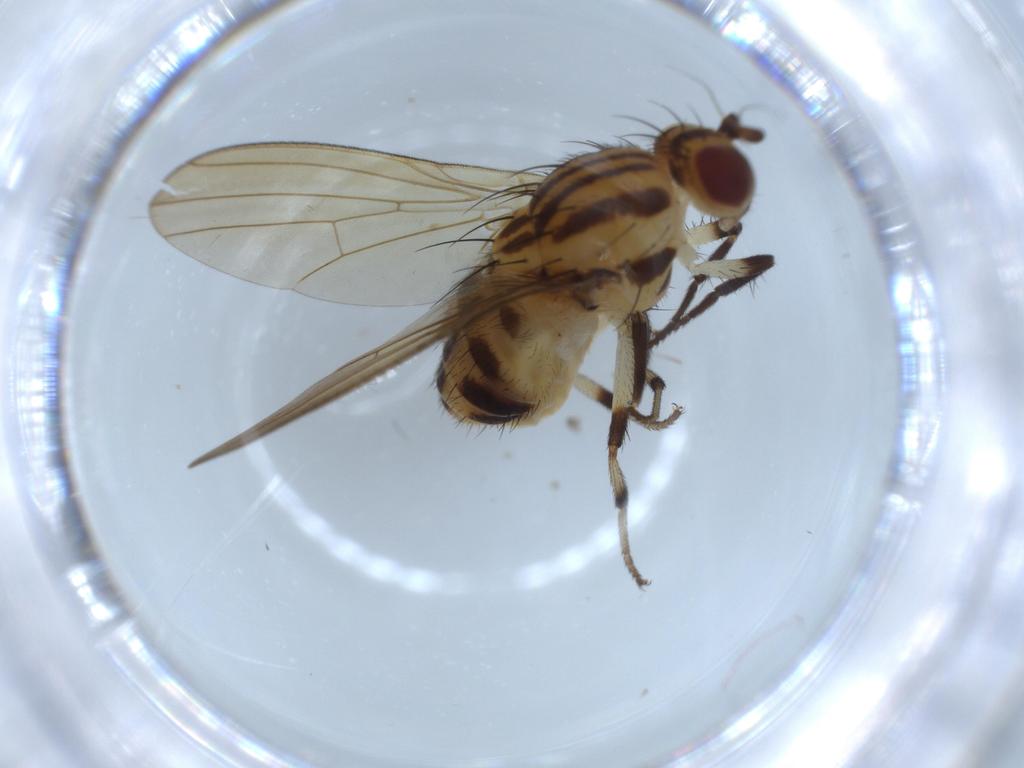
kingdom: Animalia
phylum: Arthropoda
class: Insecta
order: Diptera
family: Lauxaniidae
